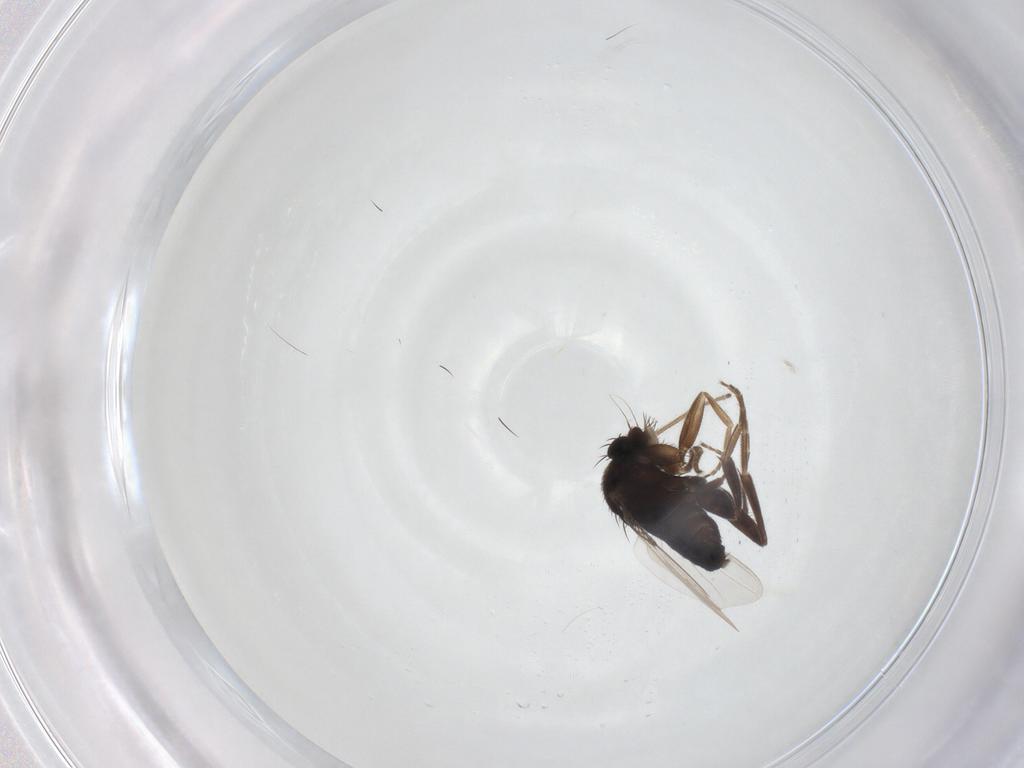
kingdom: Animalia
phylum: Arthropoda
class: Insecta
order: Diptera
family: Phoridae
